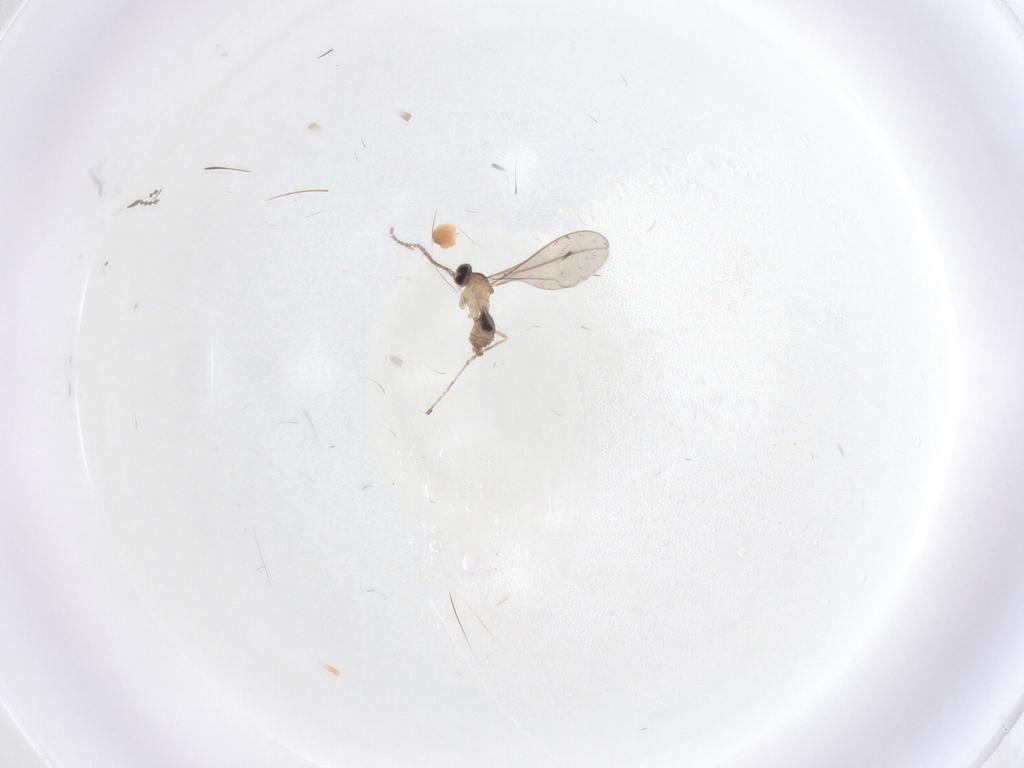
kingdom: Animalia
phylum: Arthropoda
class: Insecta
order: Diptera
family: Cecidomyiidae
